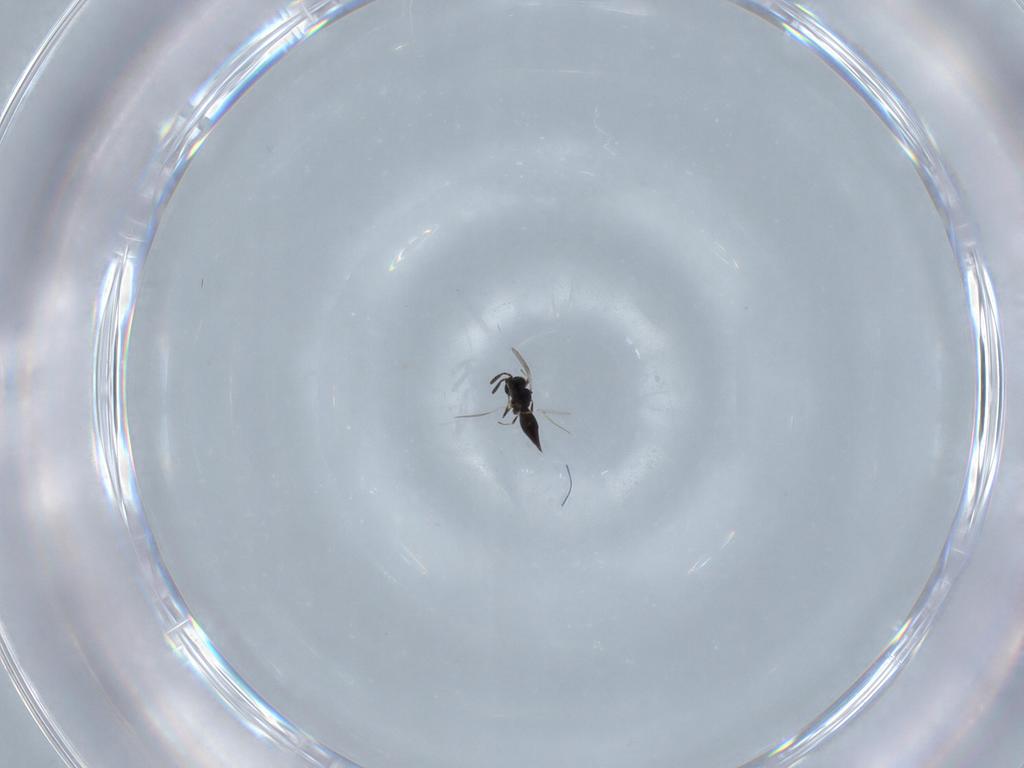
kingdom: Animalia
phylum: Arthropoda
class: Insecta
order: Hymenoptera
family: Scelionidae
